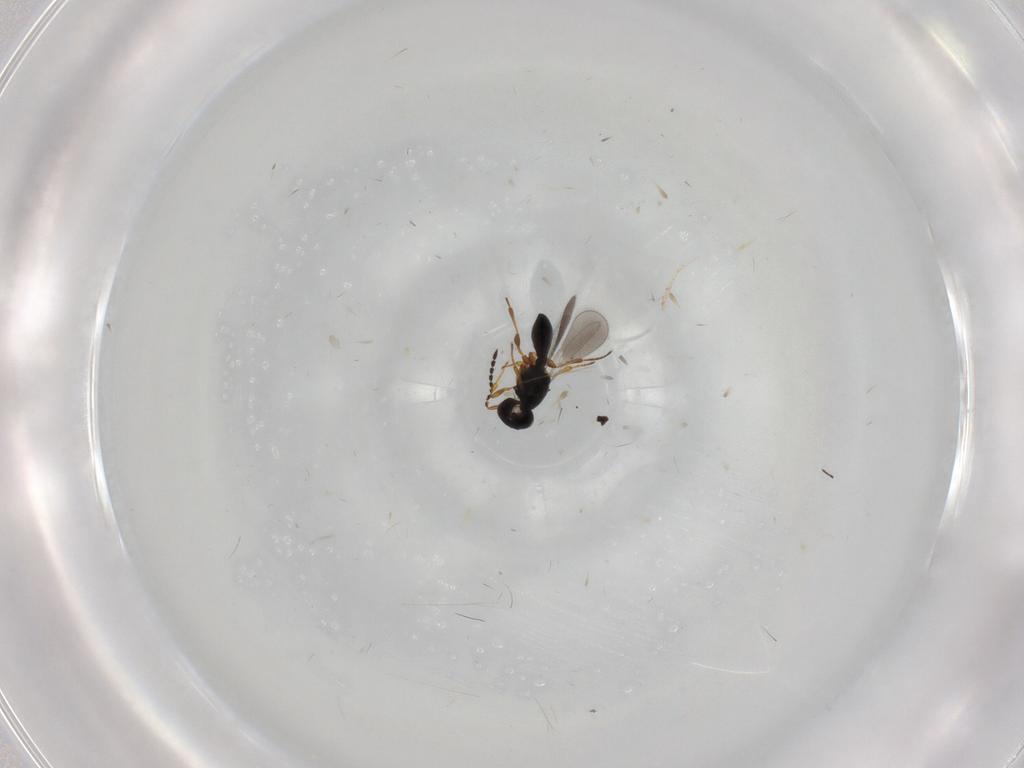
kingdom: Animalia
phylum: Arthropoda
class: Insecta
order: Hymenoptera
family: Platygastridae
